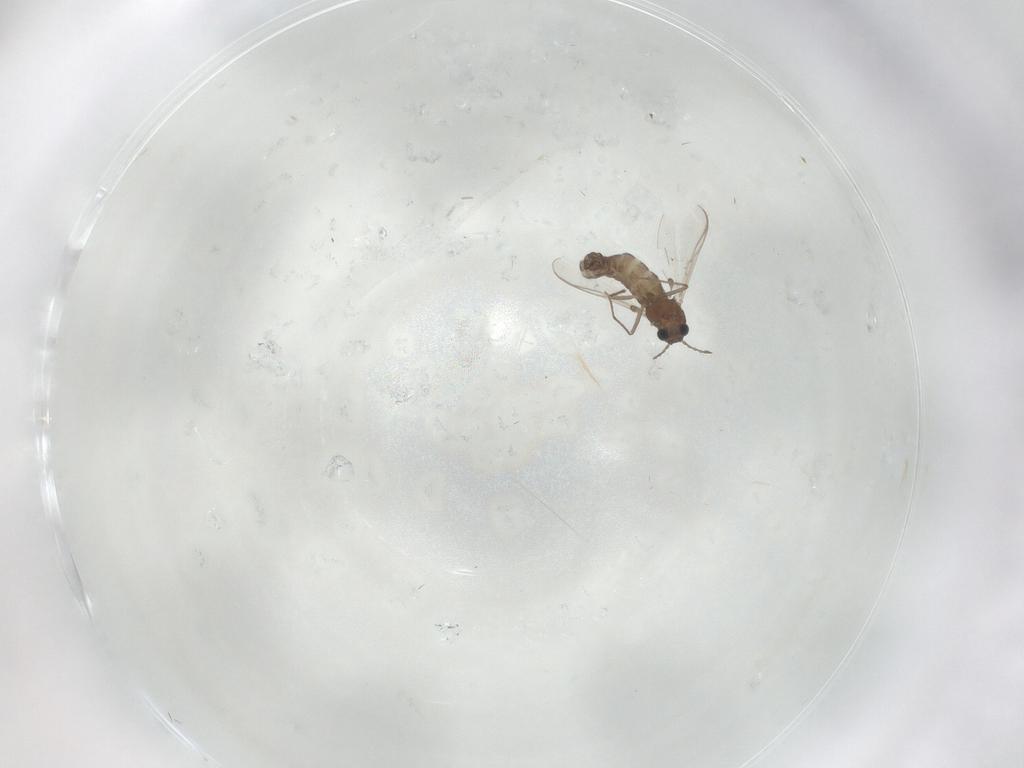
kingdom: Animalia
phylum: Arthropoda
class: Insecta
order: Diptera
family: Chironomidae
